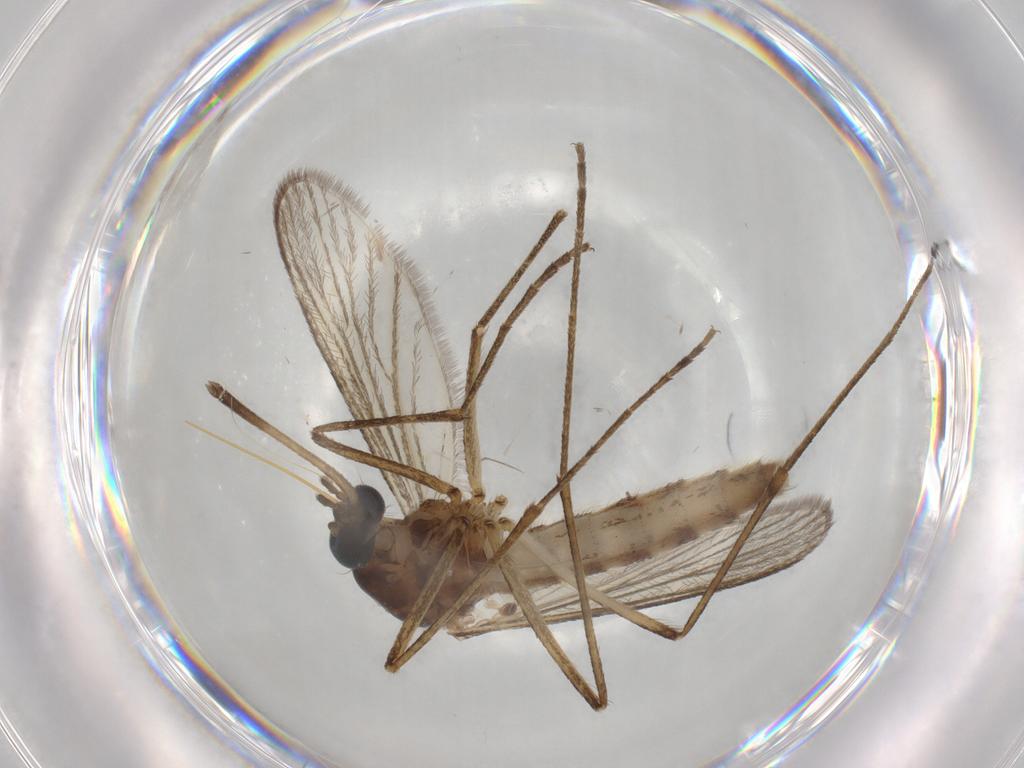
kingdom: Animalia
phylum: Arthropoda
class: Insecta
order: Diptera
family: Ceratopogonidae
